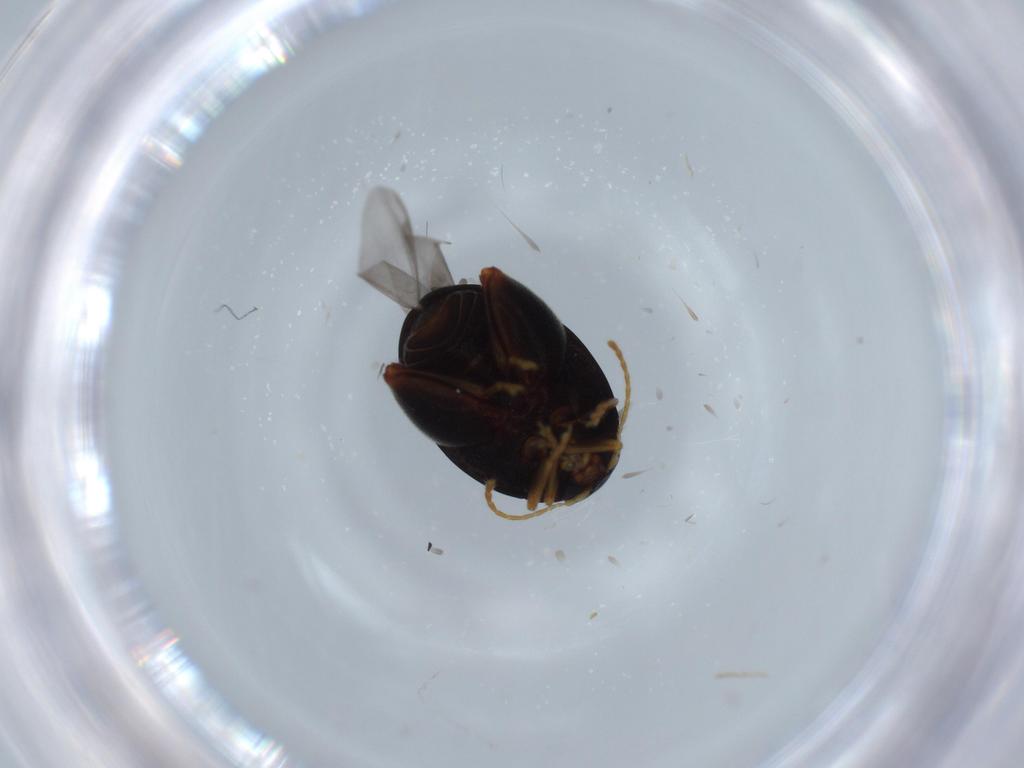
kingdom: Animalia
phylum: Arthropoda
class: Insecta
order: Coleoptera
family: Chrysomelidae
